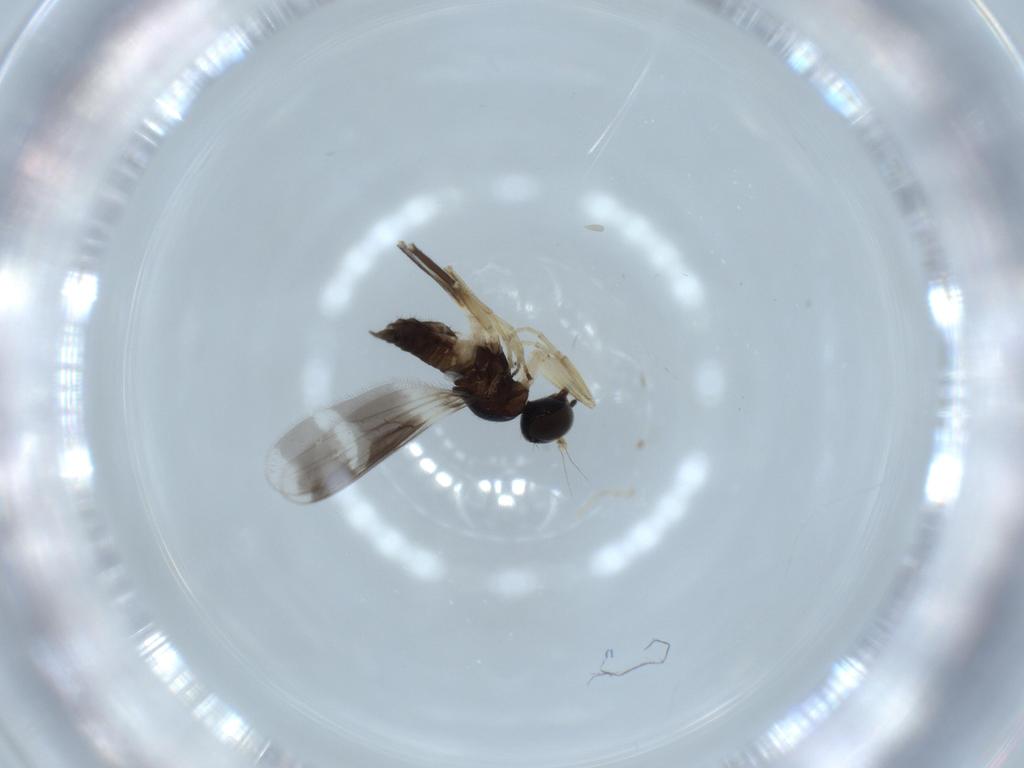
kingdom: Animalia
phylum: Arthropoda
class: Insecta
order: Diptera
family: Hybotidae
